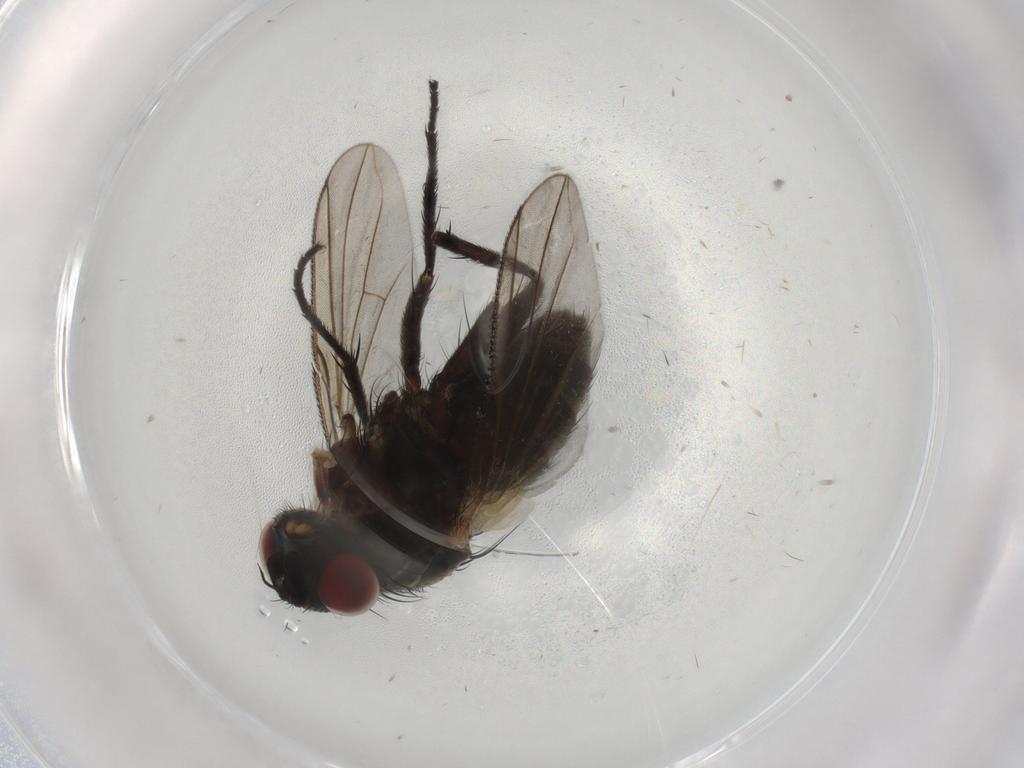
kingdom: Animalia
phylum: Arthropoda
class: Insecta
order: Diptera
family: Tachinidae
